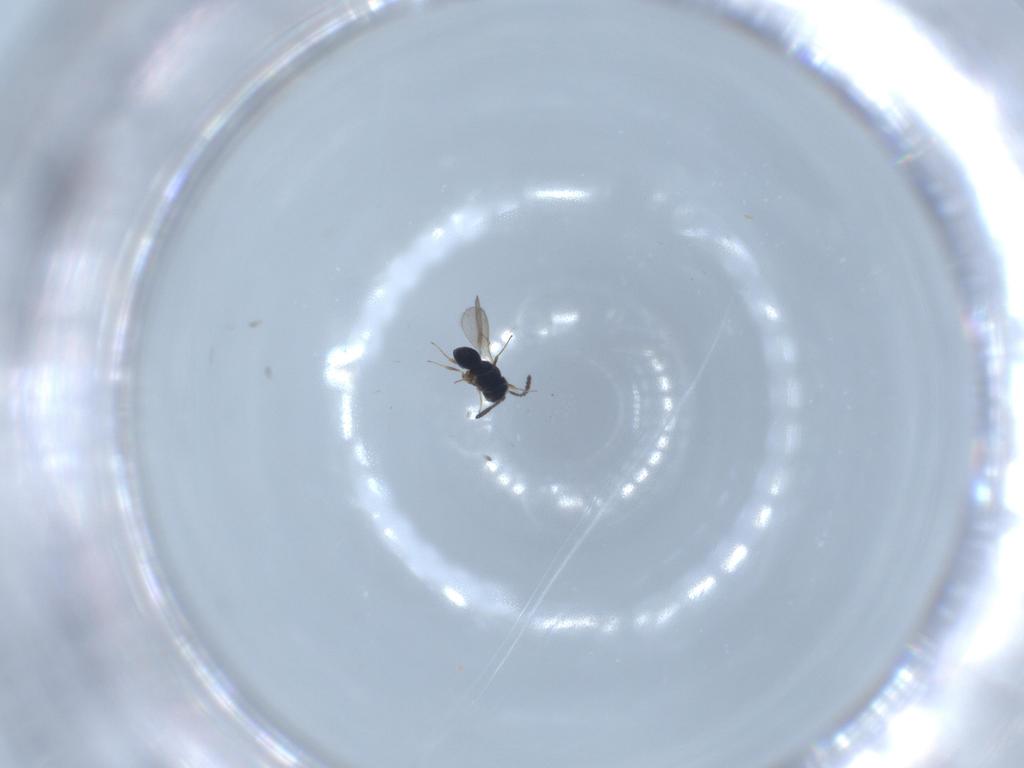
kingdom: Animalia
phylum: Arthropoda
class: Insecta
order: Hymenoptera
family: Scelionidae
